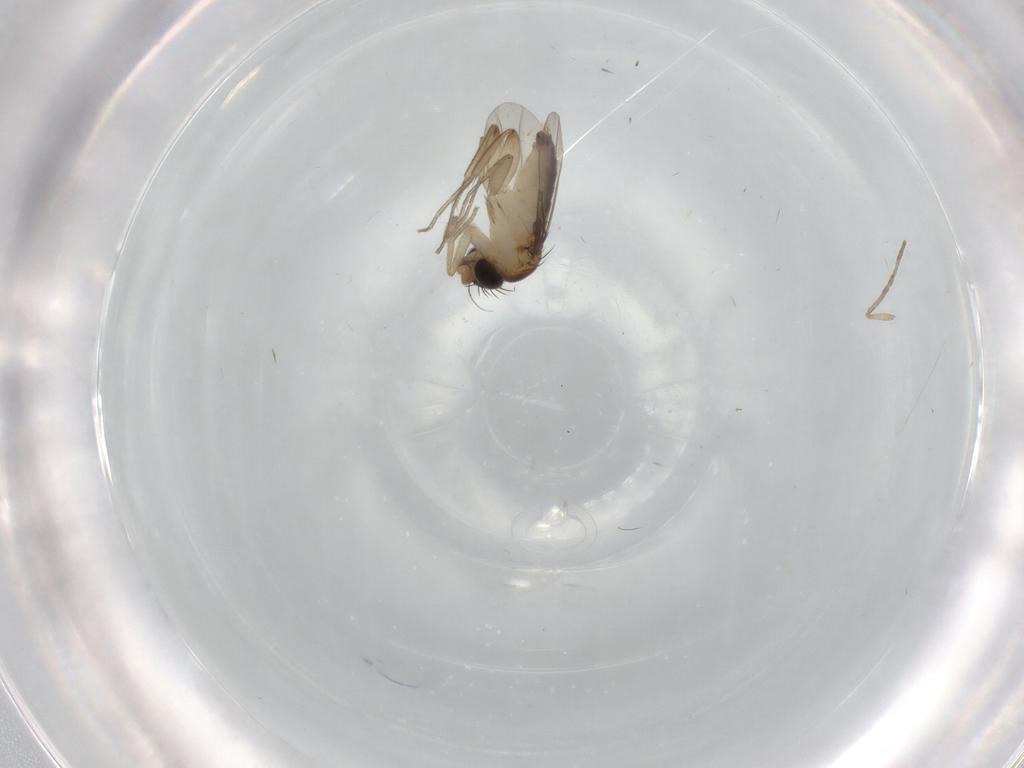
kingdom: Animalia
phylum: Arthropoda
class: Insecta
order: Diptera
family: Phoridae
